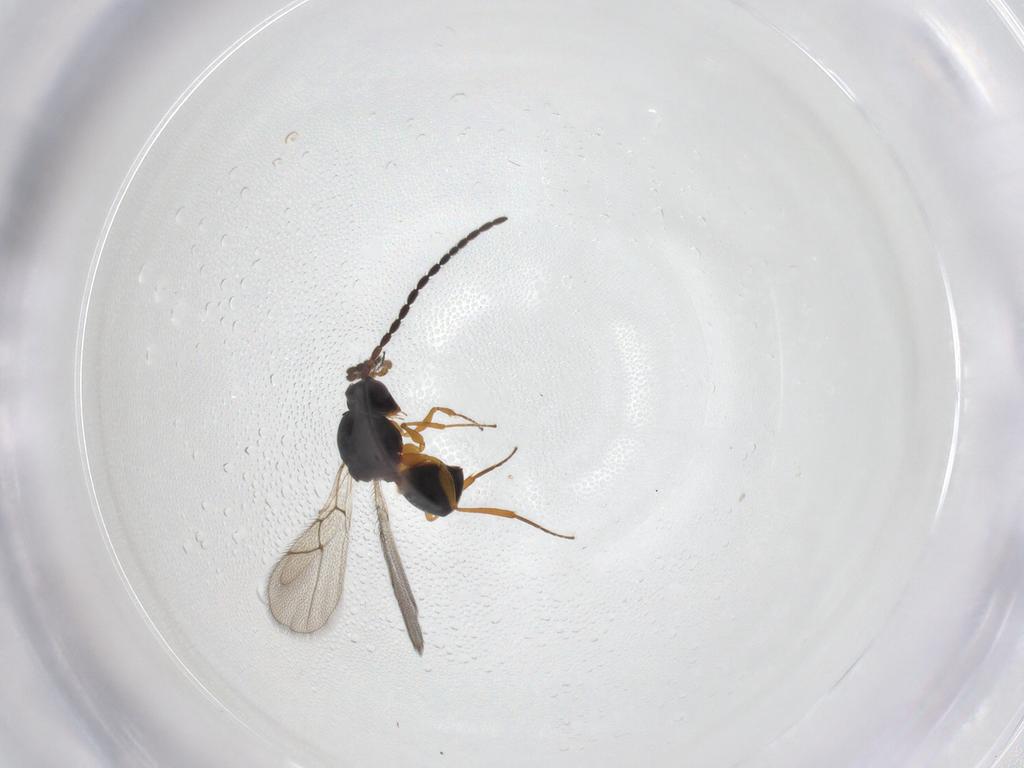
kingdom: Animalia
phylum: Arthropoda
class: Insecta
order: Hymenoptera
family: Figitidae
